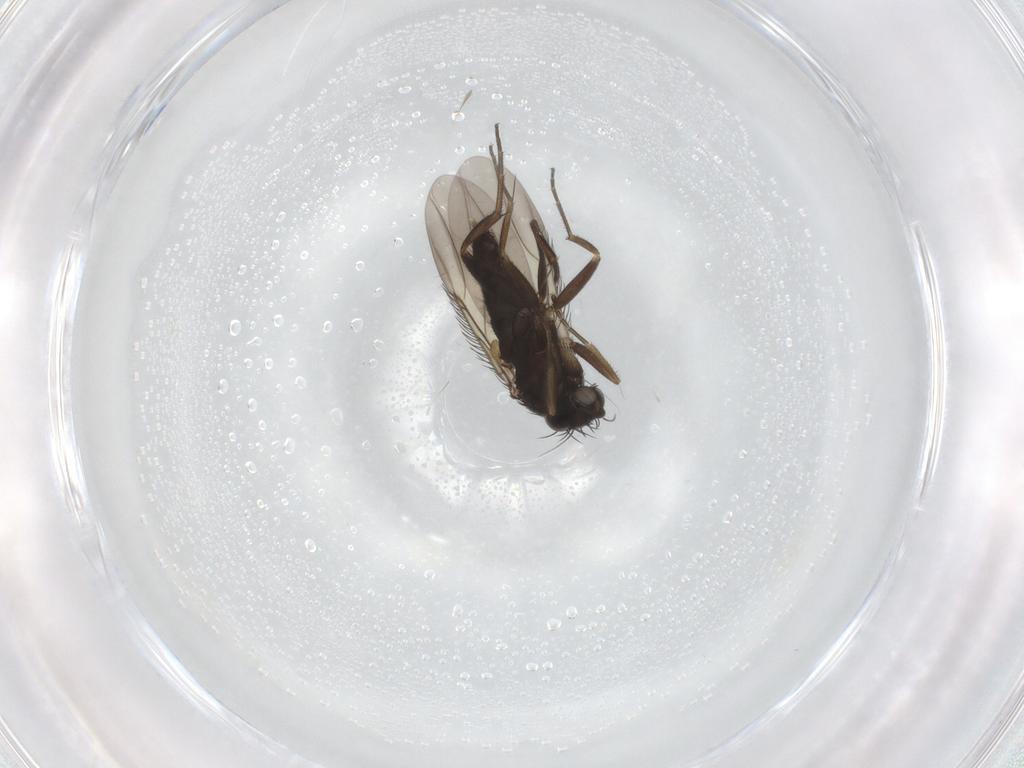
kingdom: Animalia
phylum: Arthropoda
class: Insecta
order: Diptera
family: Phoridae
